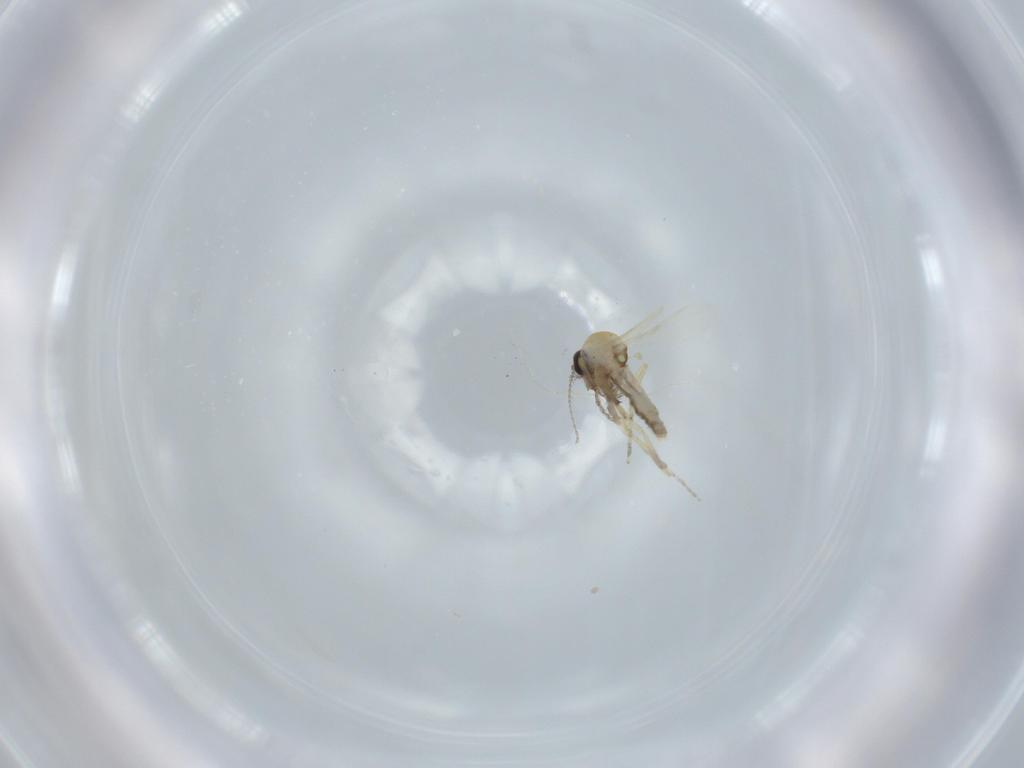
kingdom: Animalia
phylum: Arthropoda
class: Insecta
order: Diptera
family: Ceratopogonidae
